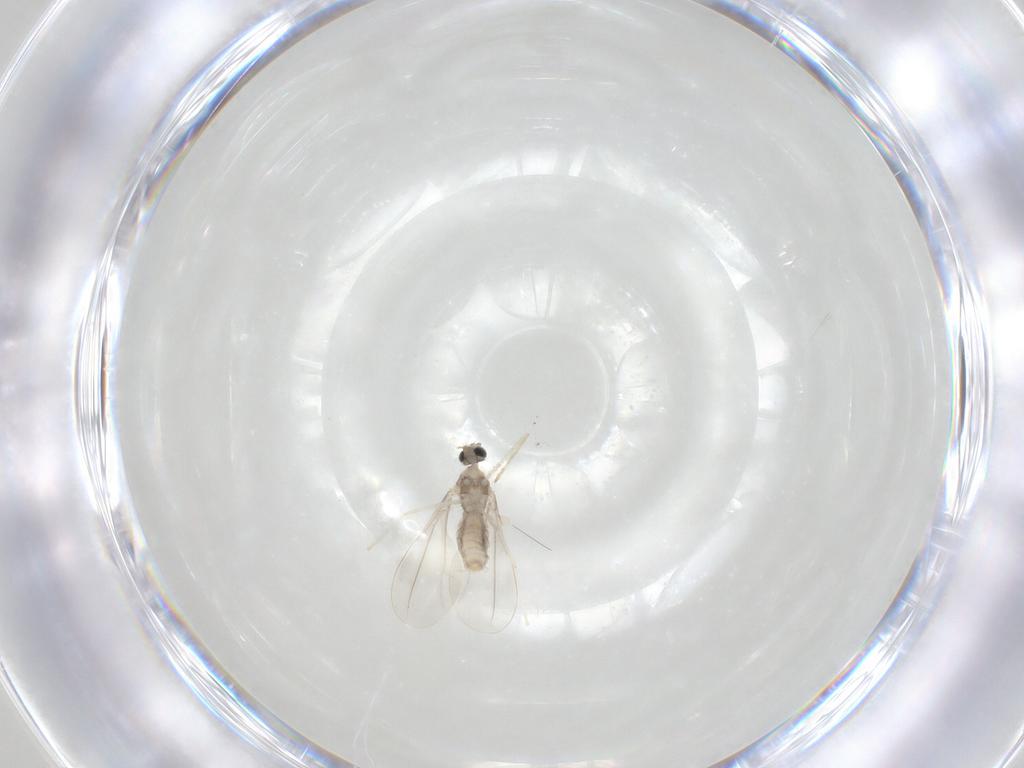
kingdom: Animalia
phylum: Arthropoda
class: Insecta
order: Diptera
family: Cecidomyiidae
